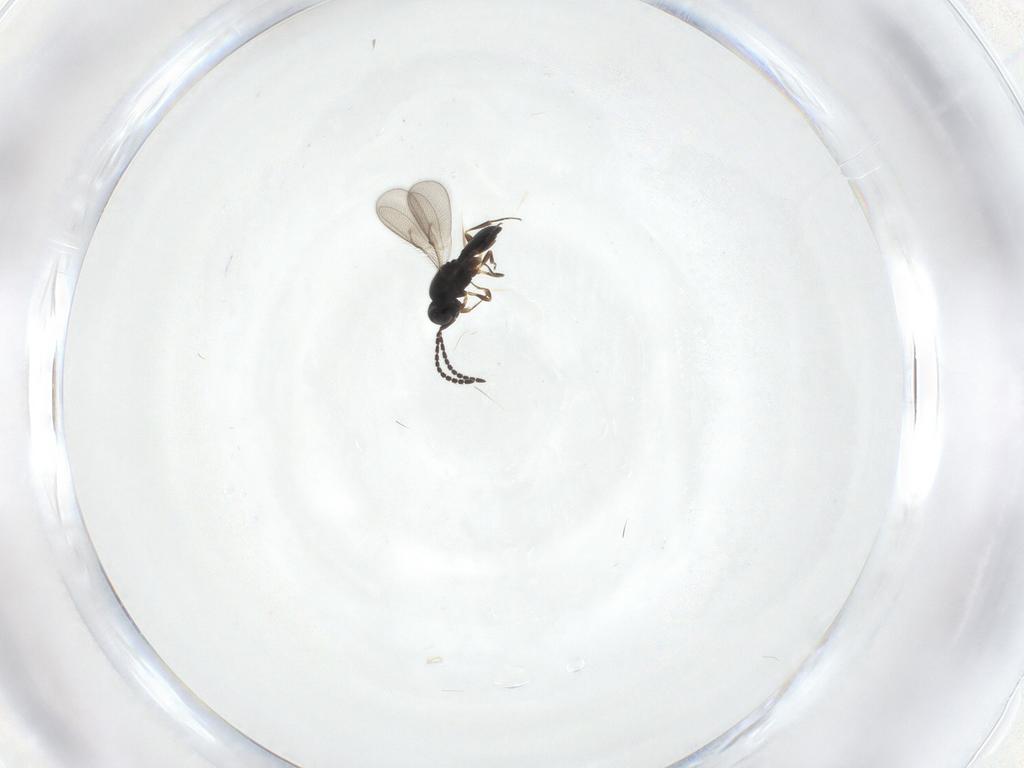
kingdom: Animalia
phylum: Arthropoda
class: Insecta
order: Hymenoptera
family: Scelionidae
